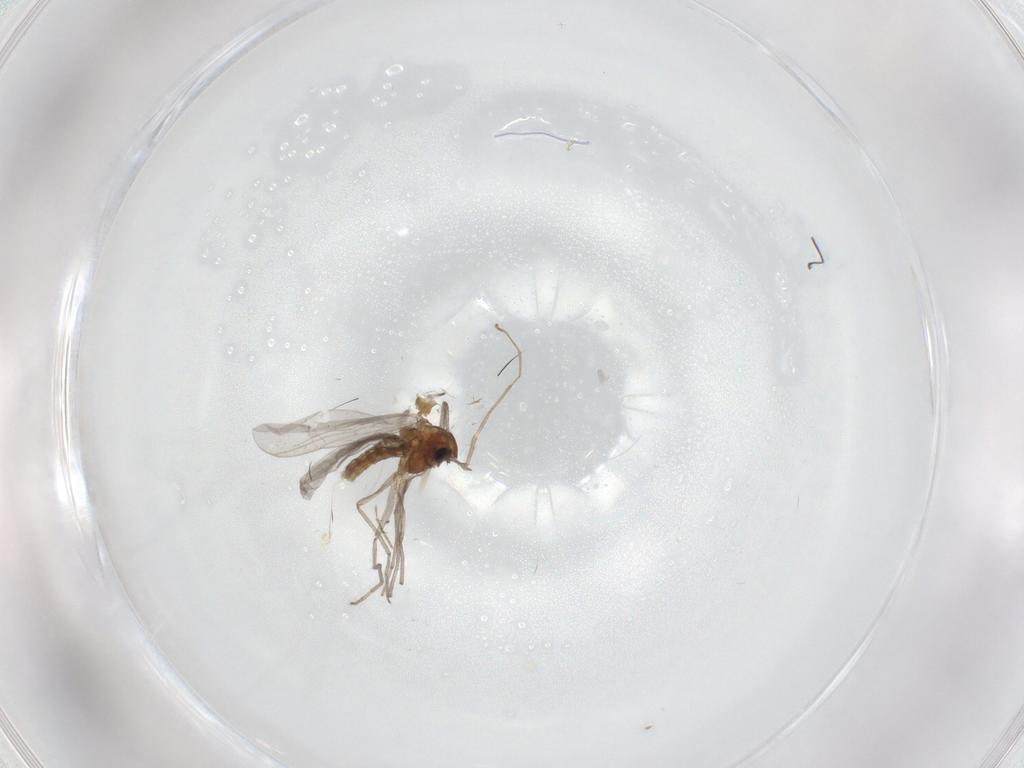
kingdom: Animalia
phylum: Arthropoda
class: Insecta
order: Diptera
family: Chironomidae
